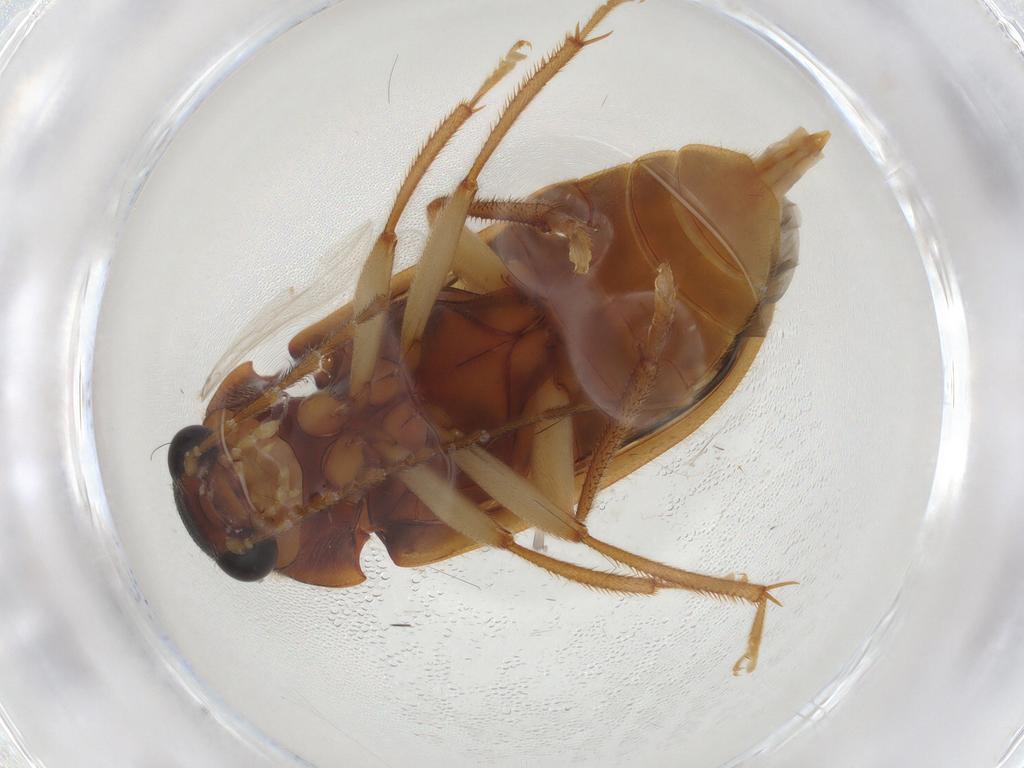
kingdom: Animalia
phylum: Arthropoda
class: Insecta
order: Coleoptera
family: Ptilodactylidae
